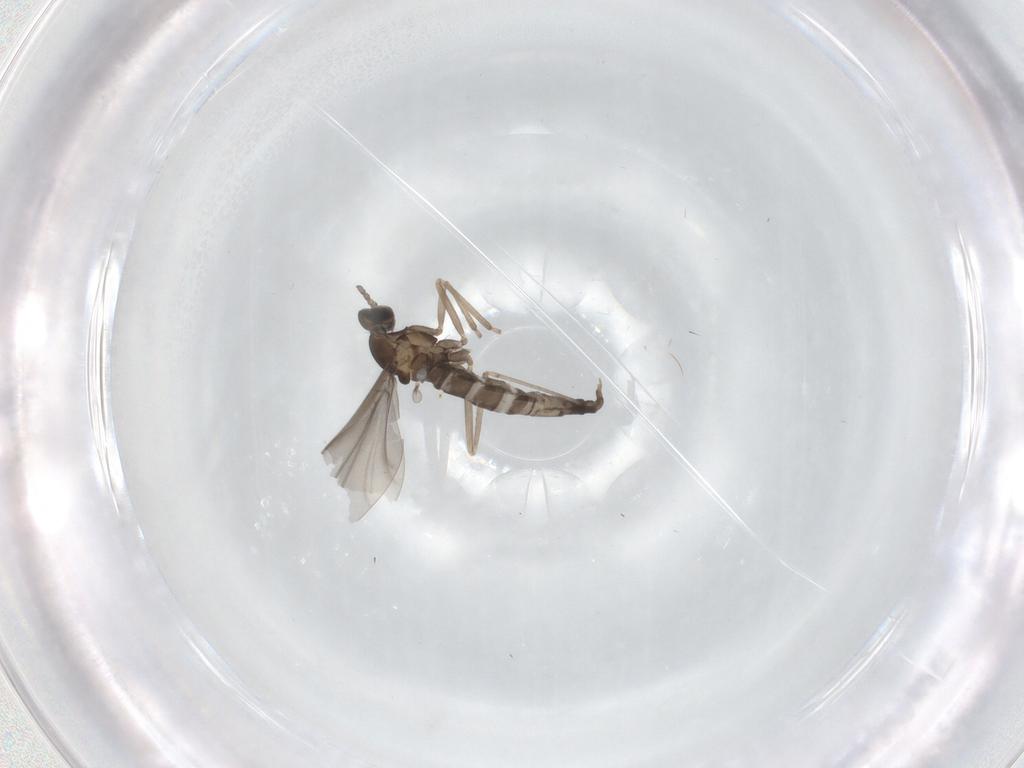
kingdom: Animalia
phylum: Arthropoda
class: Insecta
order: Diptera
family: Cecidomyiidae
